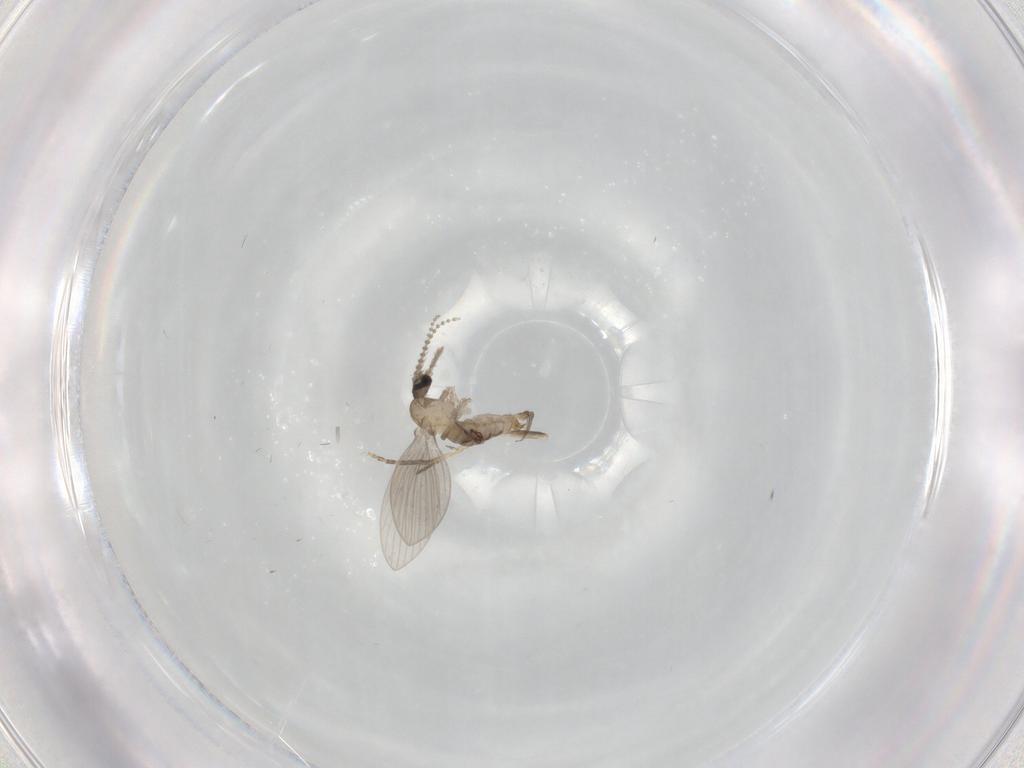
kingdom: Animalia
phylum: Arthropoda
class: Insecta
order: Diptera
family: Psychodidae
